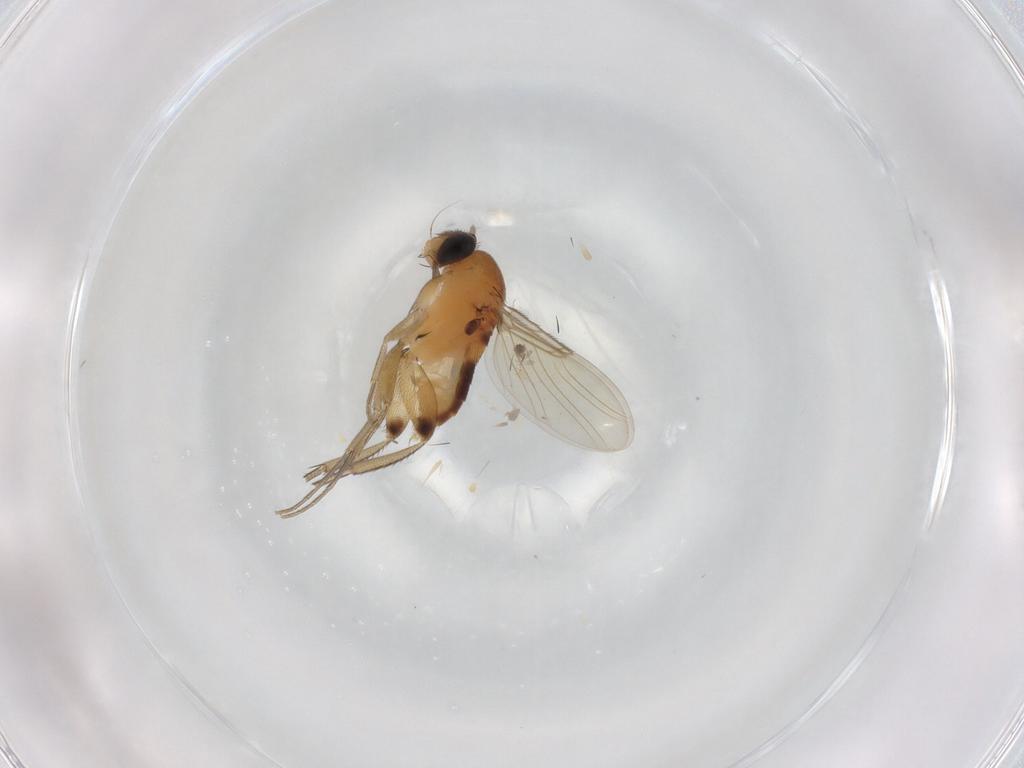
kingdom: Animalia
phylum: Arthropoda
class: Insecta
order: Diptera
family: Phoridae
